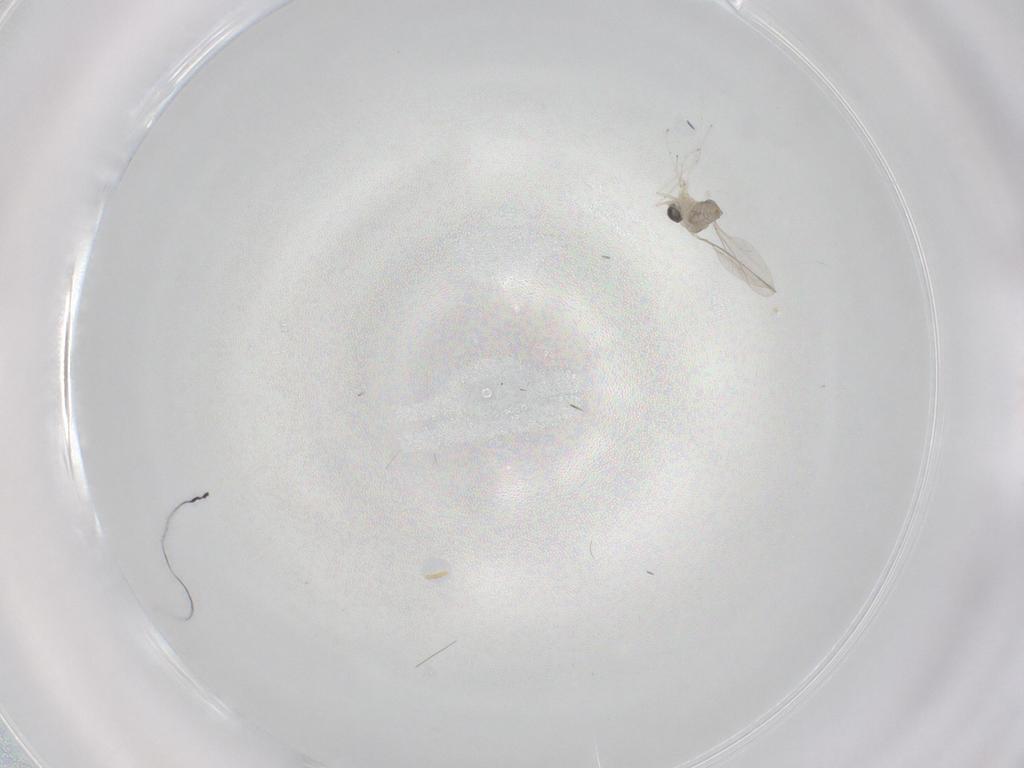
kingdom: Animalia
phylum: Arthropoda
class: Insecta
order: Diptera
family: Cecidomyiidae
